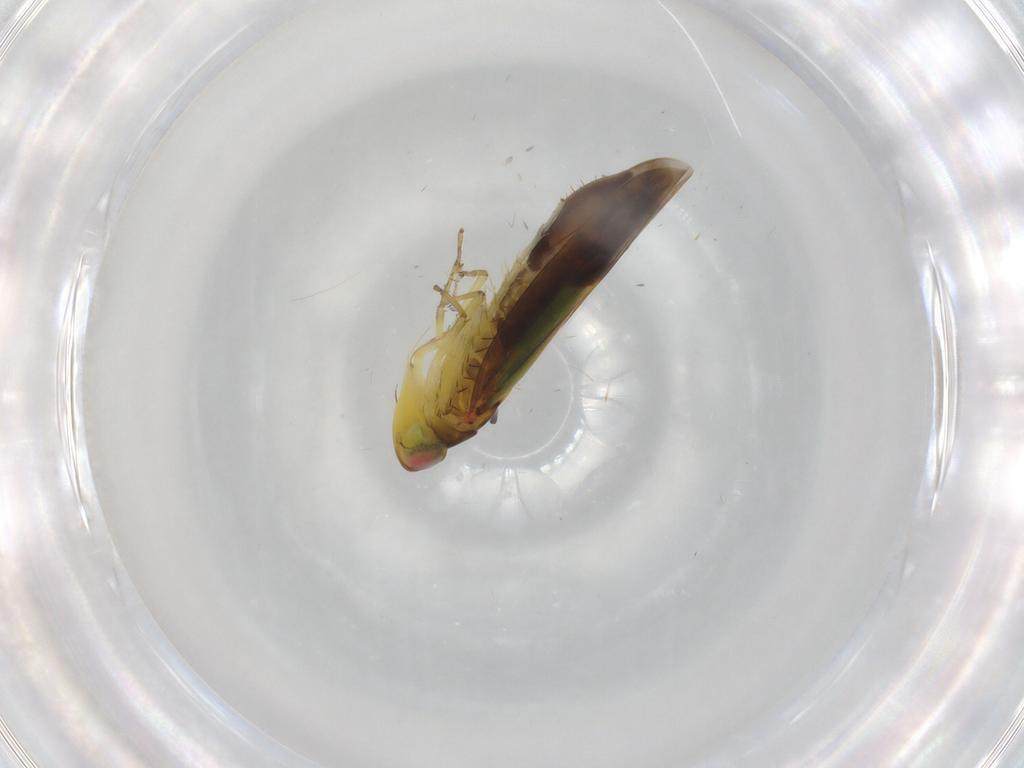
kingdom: Animalia
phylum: Arthropoda
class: Insecta
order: Hemiptera
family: Cicadellidae
